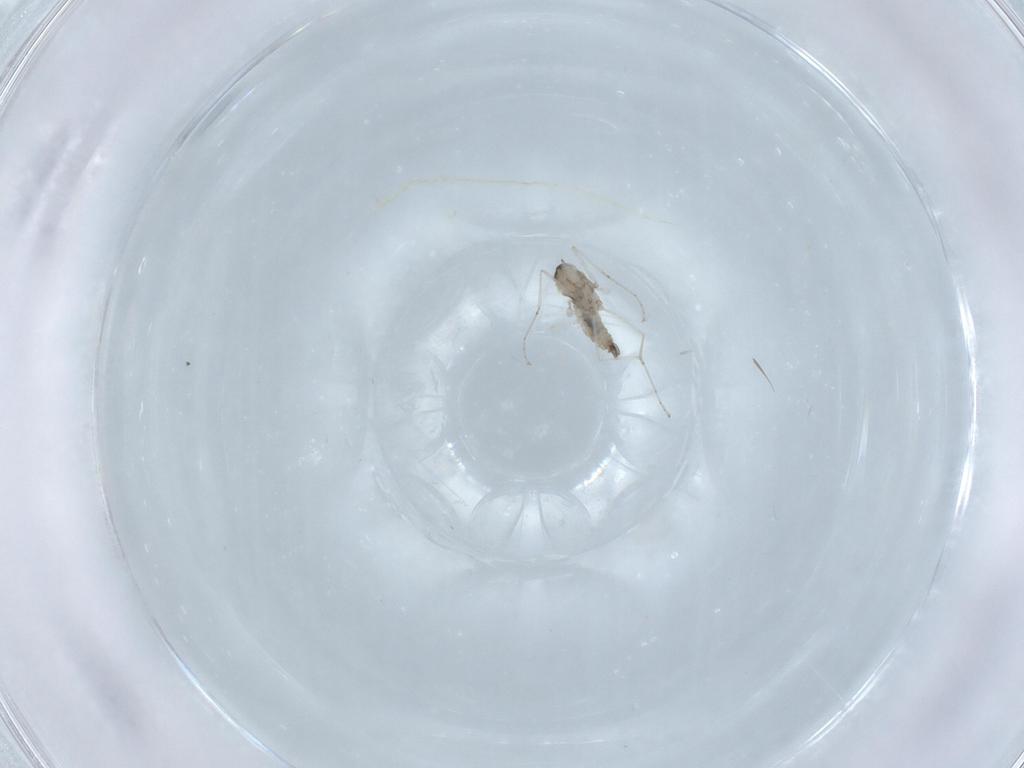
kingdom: Animalia
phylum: Arthropoda
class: Insecta
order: Diptera
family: Cecidomyiidae
